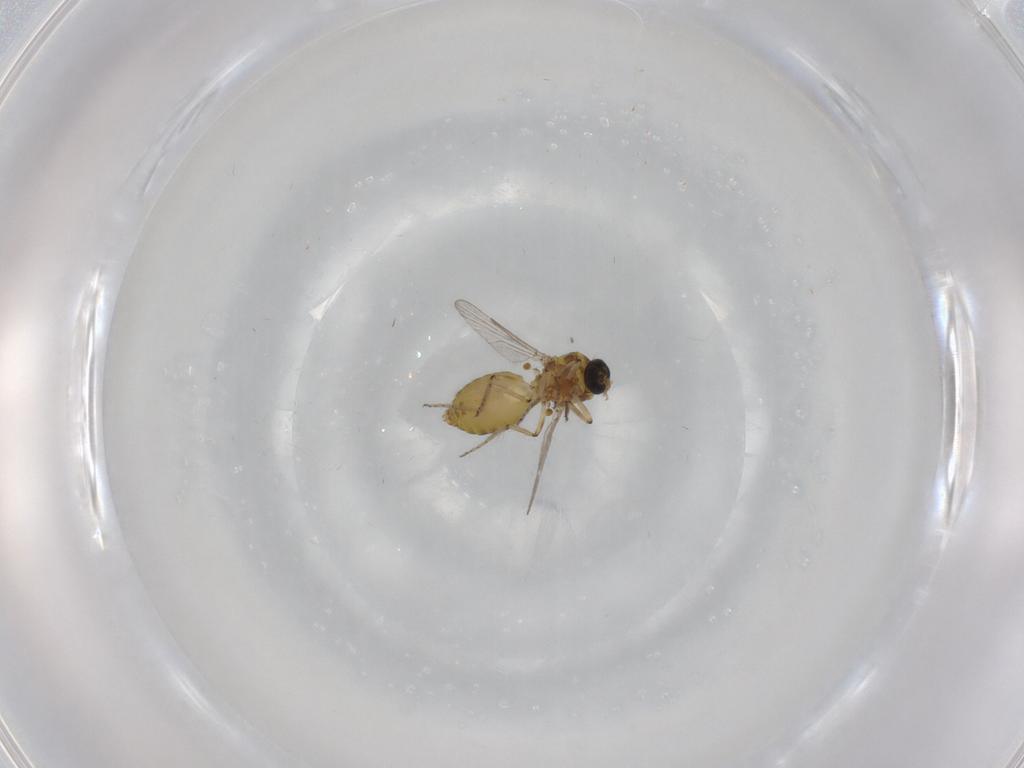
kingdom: Animalia
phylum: Arthropoda
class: Insecta
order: Diptera
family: Ceratopogonidae
